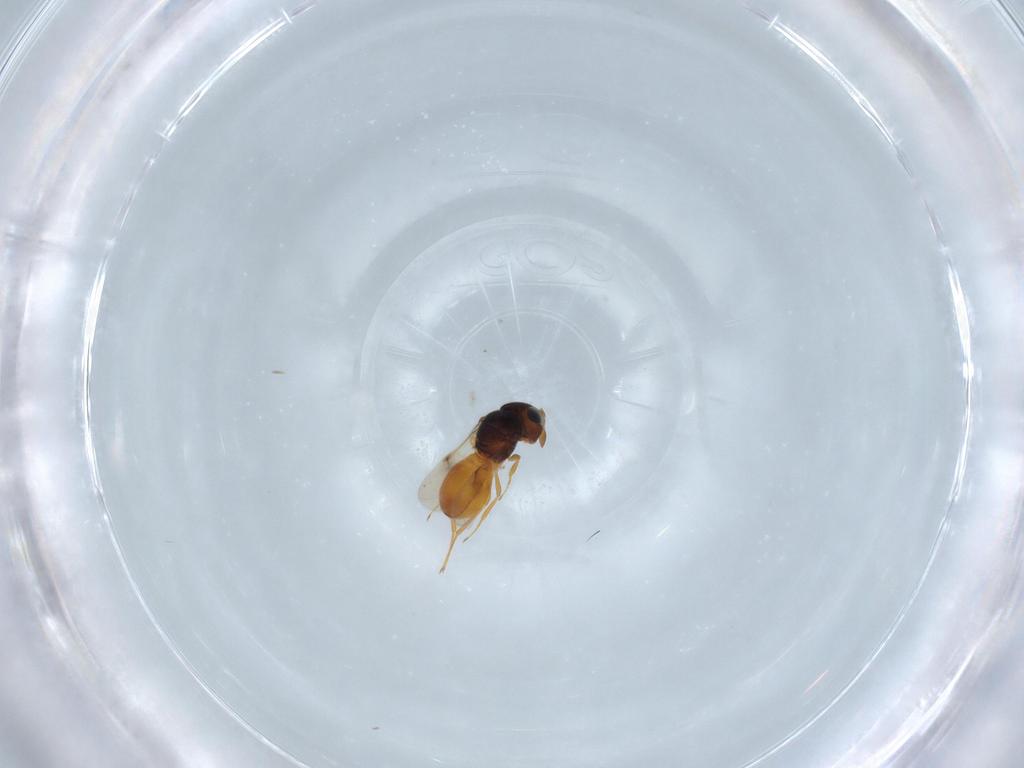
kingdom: Animalia
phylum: Arthropoda
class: Insecta
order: Hymenoptera
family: Scelionidae
